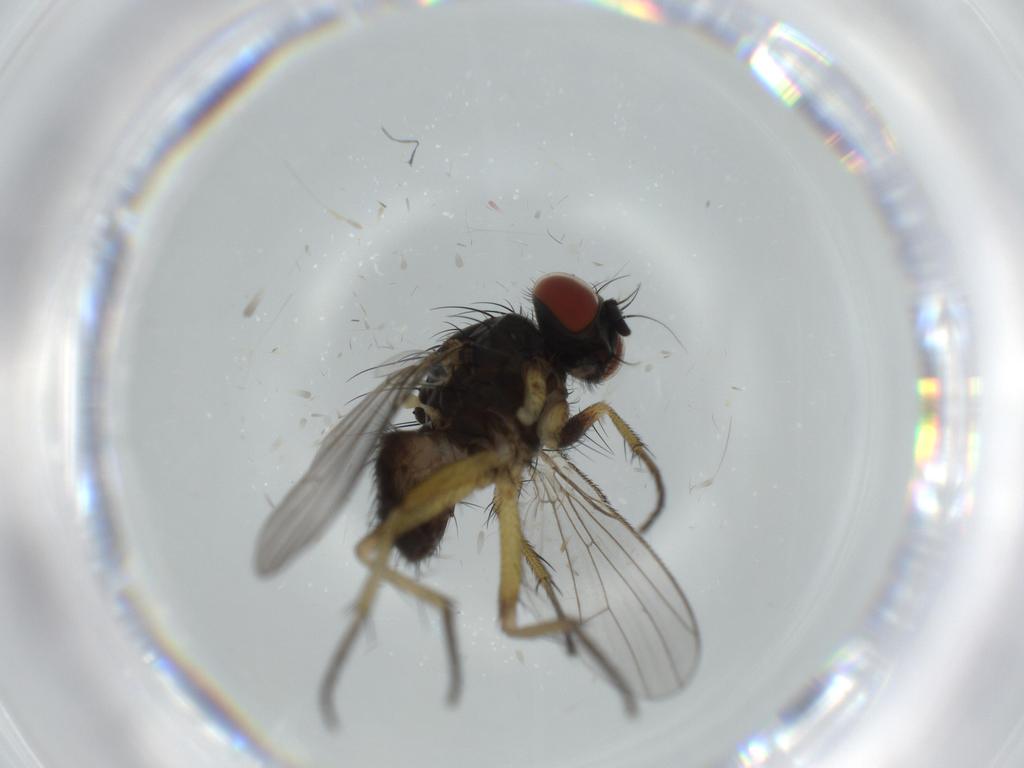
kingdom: Animalia
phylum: Arthropoda
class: Insecta
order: Diptera
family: Muscidae
